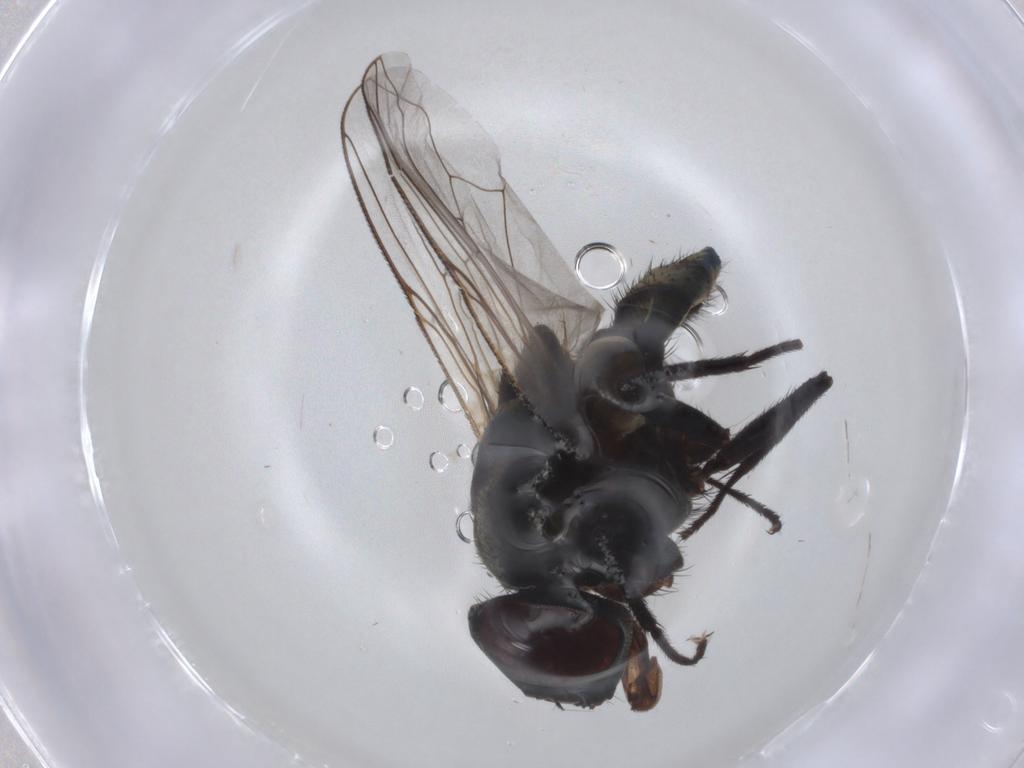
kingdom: Animalia
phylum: Arthropoda
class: Insecta
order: Diptera
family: Muscidae
